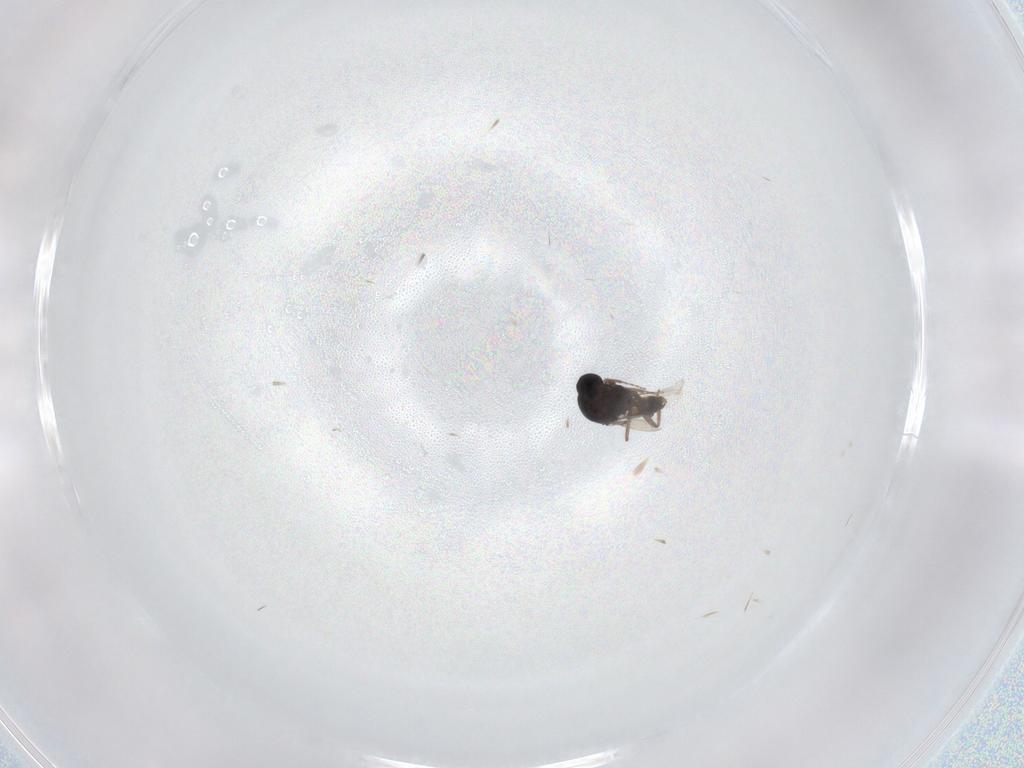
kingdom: Animalia
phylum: Arthropoda
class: Insecta
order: Diptera
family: Ceratopogonidae
